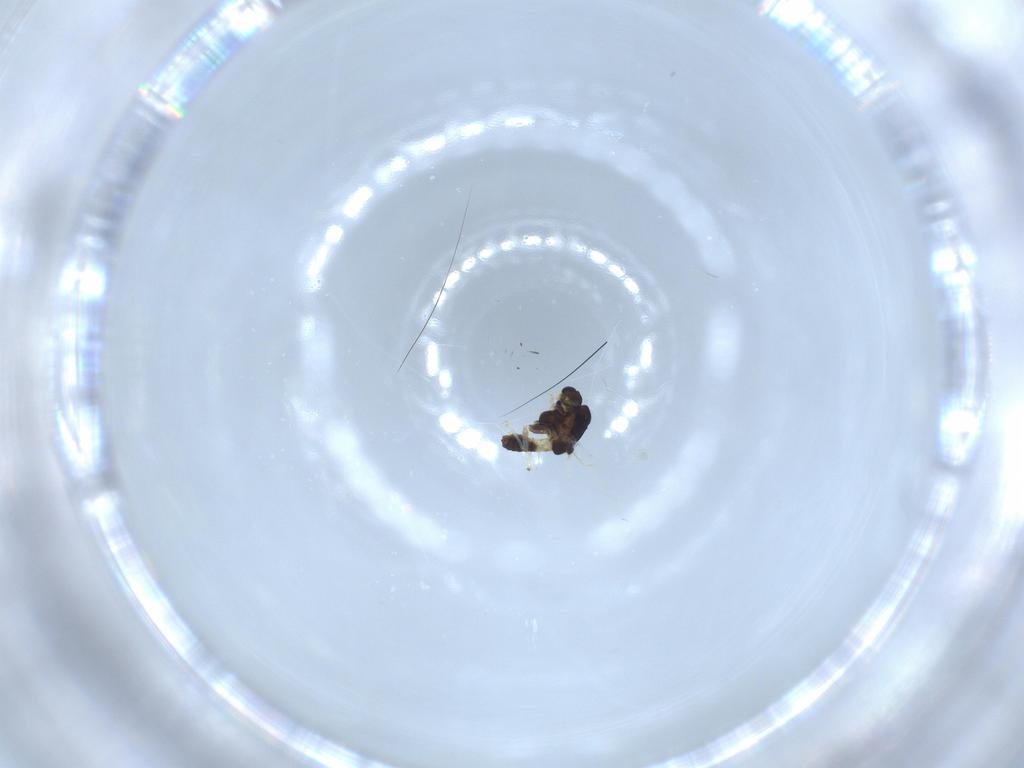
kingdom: Animalia
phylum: Arthropoda
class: Insecta
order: Diptera
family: Chironomidae
